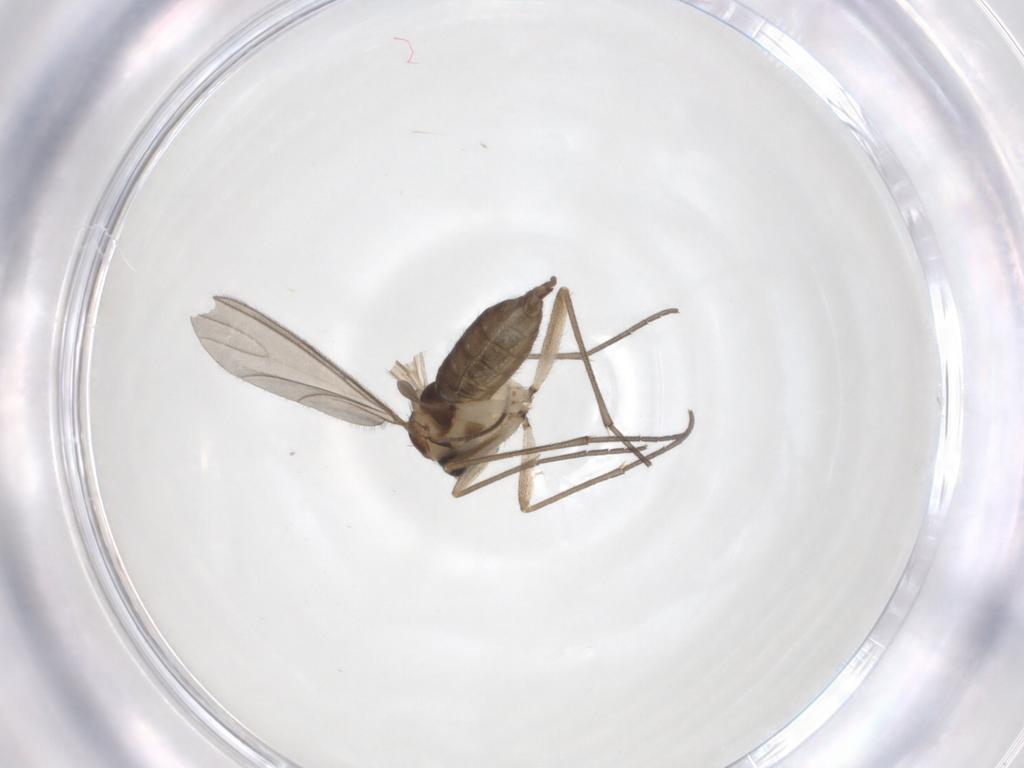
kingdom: Animalia
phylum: Arthropoda
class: Insecta
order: Diptera
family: Sciaridae
